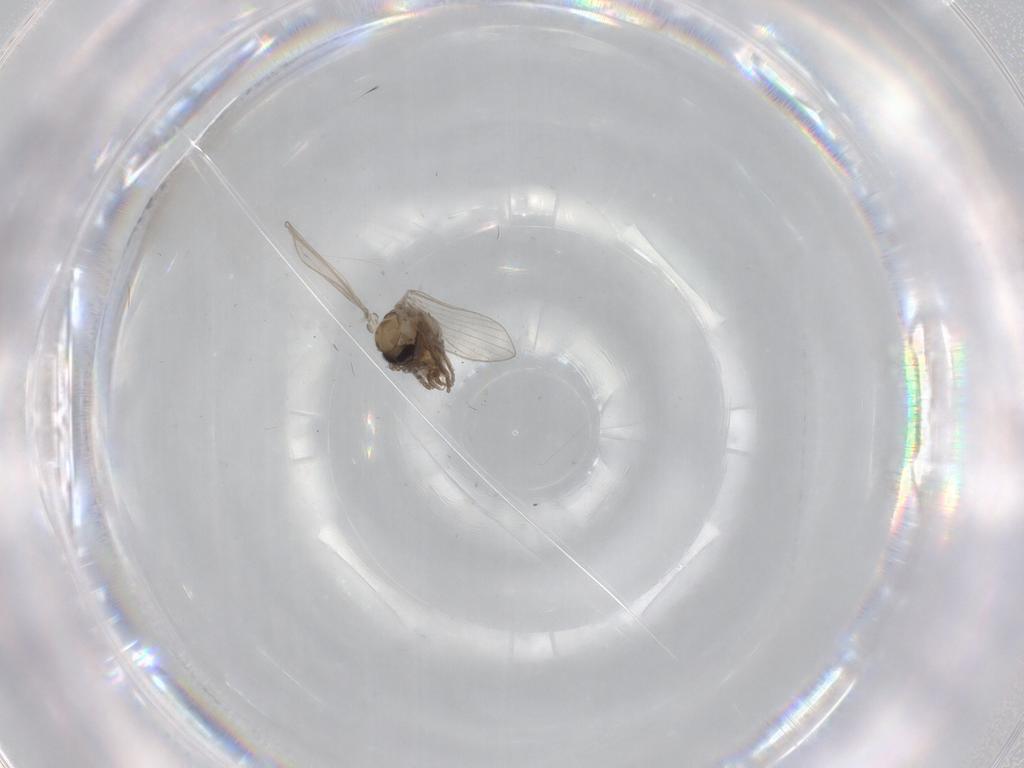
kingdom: Animalia
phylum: Arthropoda
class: Insecta
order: Diptera
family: Psychodidae
